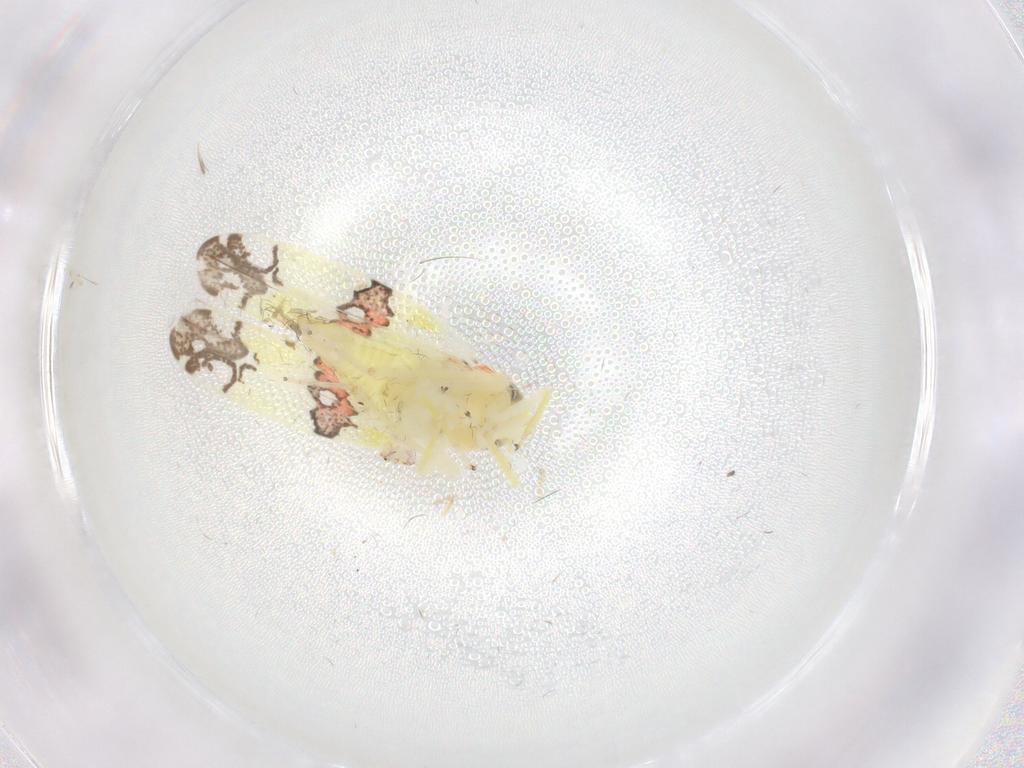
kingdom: Animalia
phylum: Arthropoda
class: Insecta
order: Hemiptera
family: Cicadellidae
